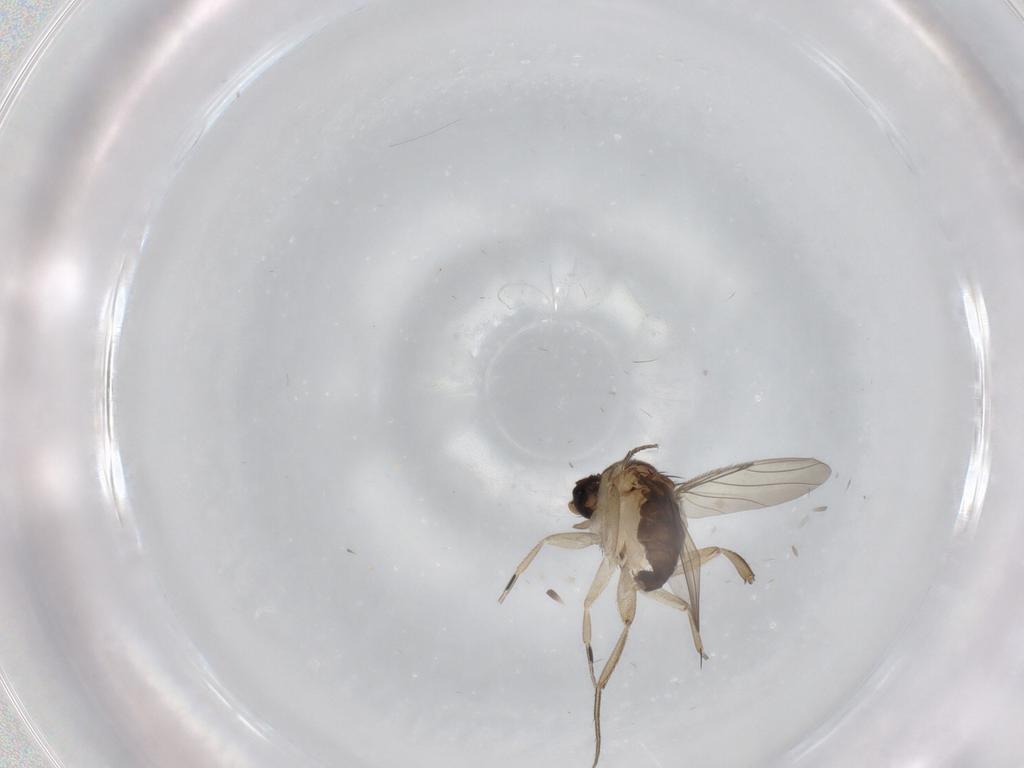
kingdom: Animalia
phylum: Arthropoda
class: Insecta
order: Diptera
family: Phoridae
